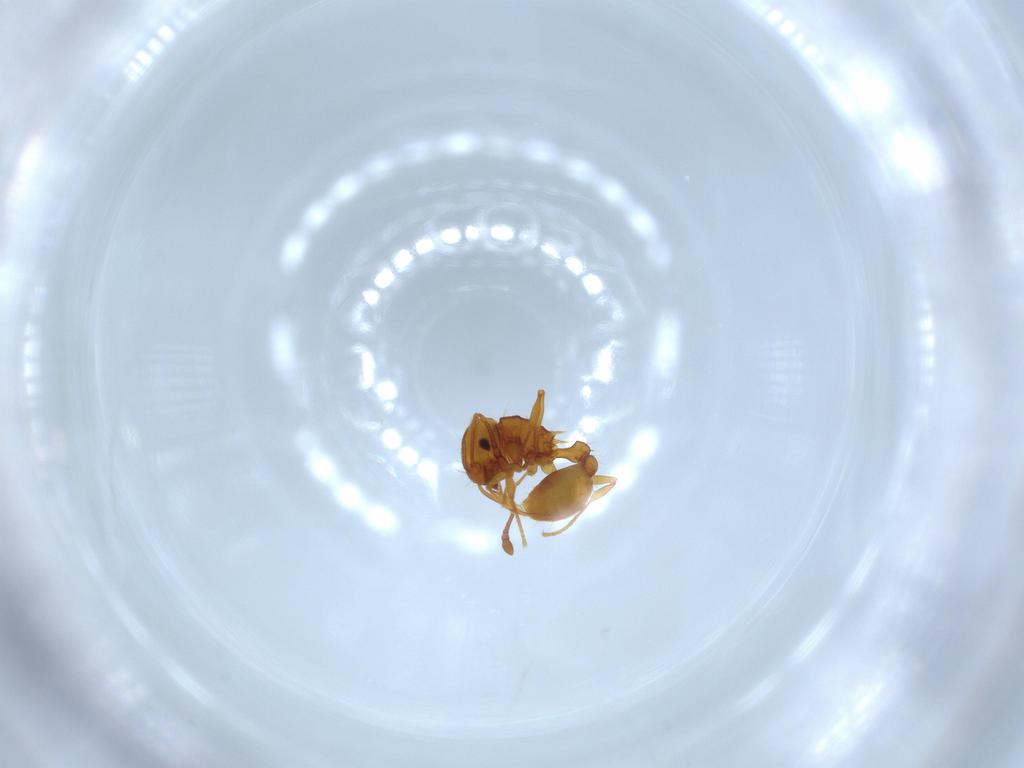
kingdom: Animalia
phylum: Arthropoda
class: Insecta
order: Hymenoptera
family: Formicidae
